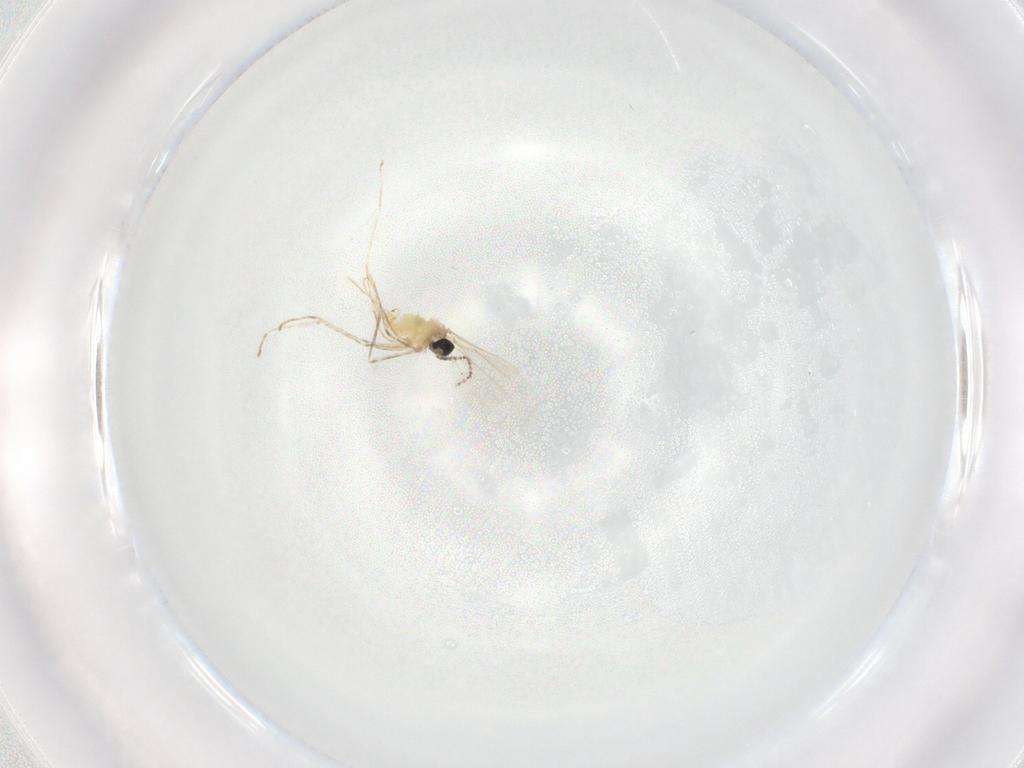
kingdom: Animalia
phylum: Arthropoda
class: Insecta
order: Diptera
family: Cecidomyiidae
